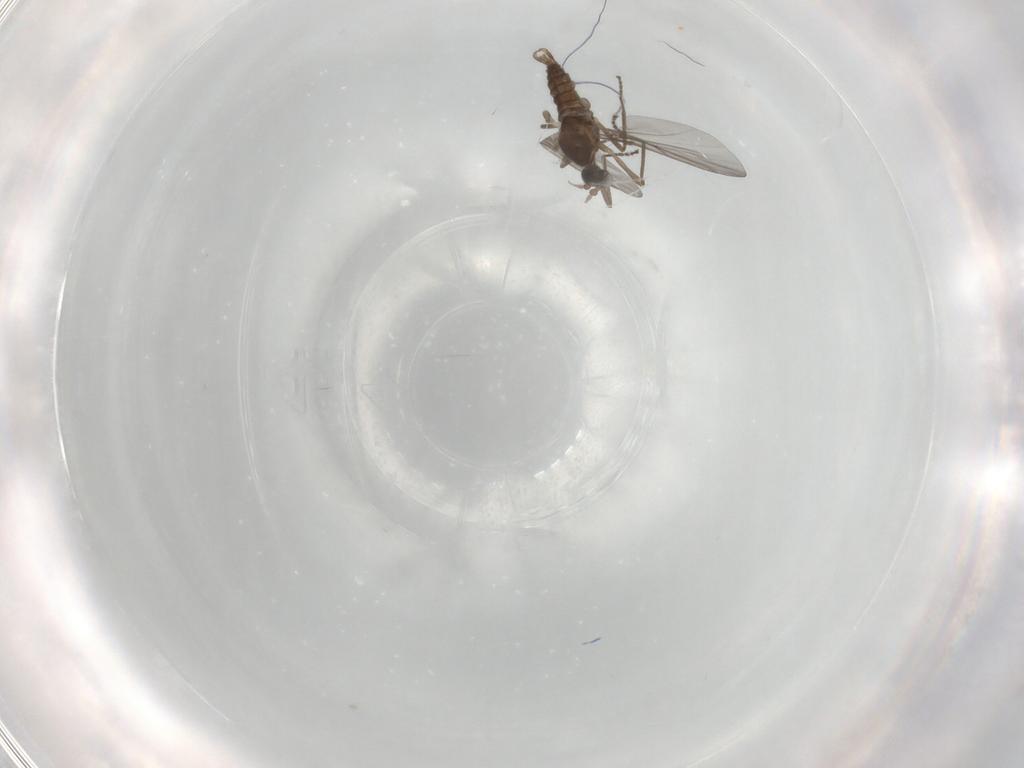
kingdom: Animalia
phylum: Arthropoda
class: Insecta
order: Diptera
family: Cecidomyiidae
